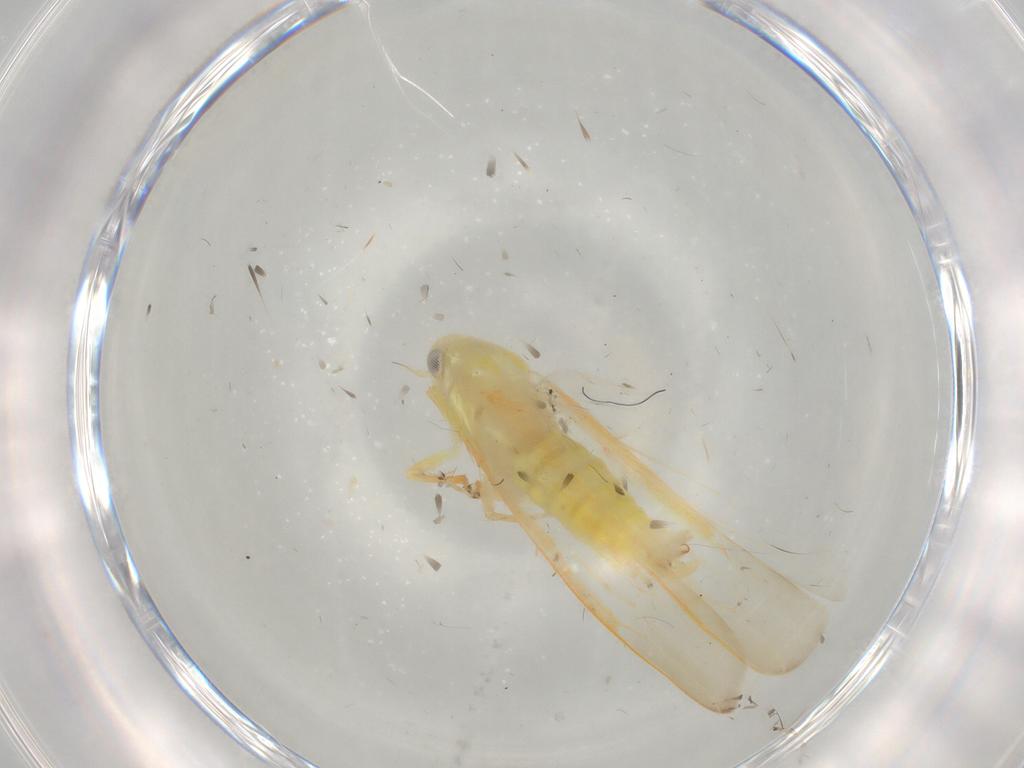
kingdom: Animalia
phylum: Arthropoda
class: Insecta
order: Hemiptera
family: Cicadellidae
